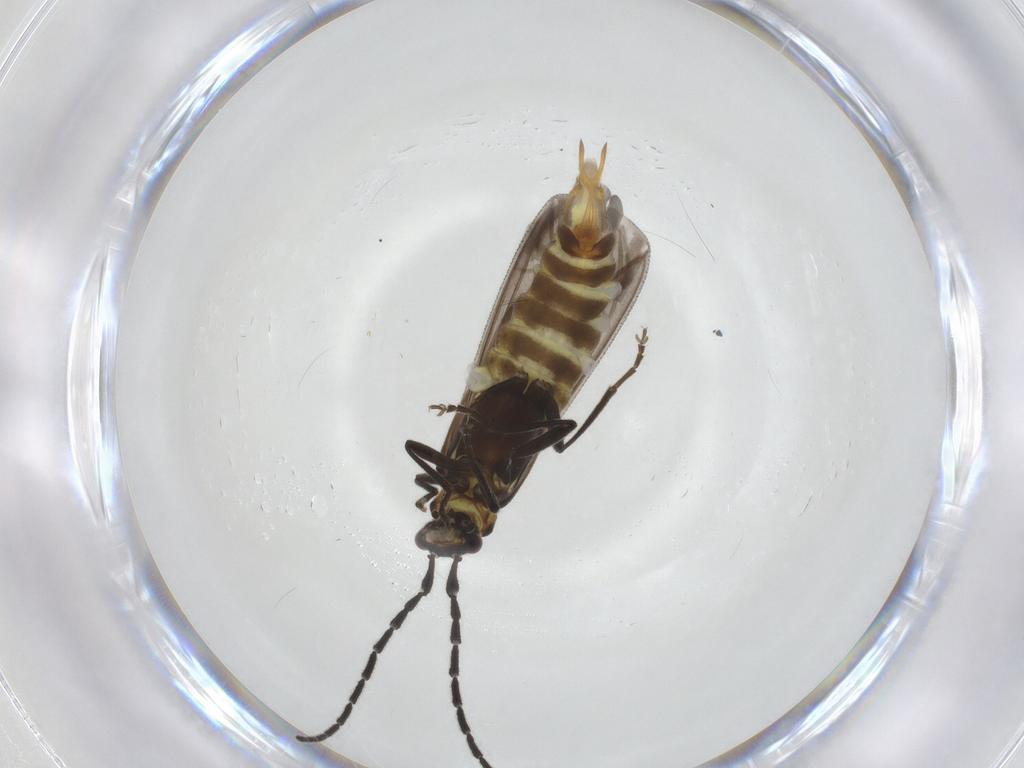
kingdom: Animalia
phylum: Arthropoda
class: Insecta
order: Coleoptera
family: Cantharidae
